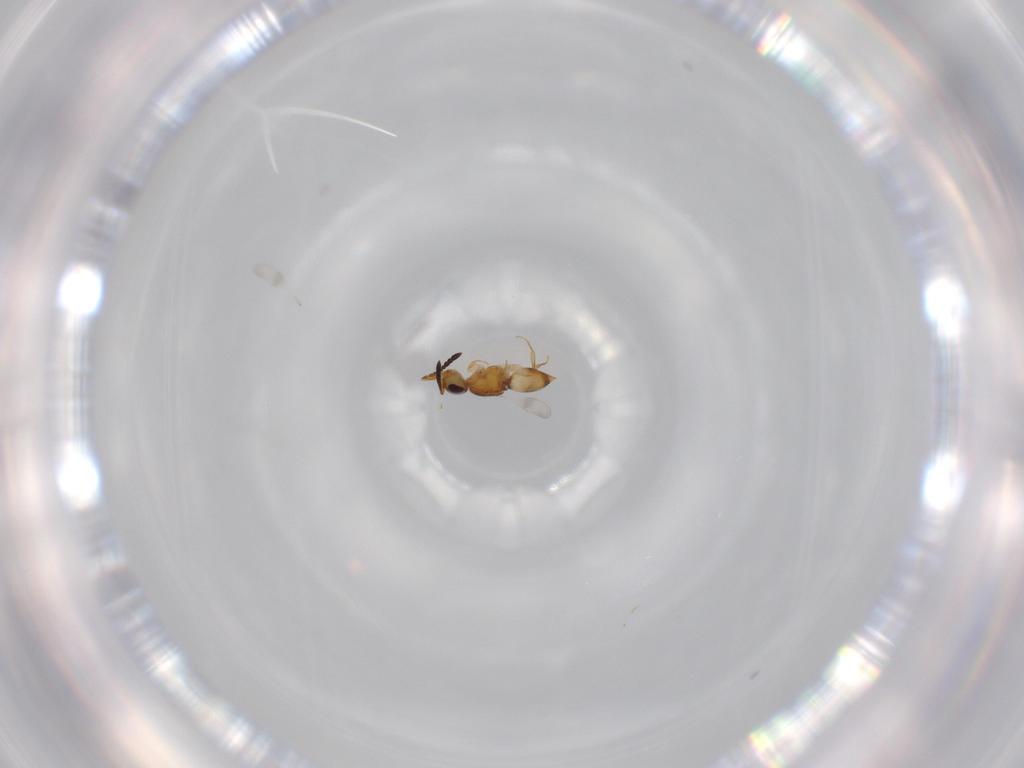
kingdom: Animalia
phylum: Arthropoda
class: Insecta
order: Hymenoptera
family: Ceraphronidae
